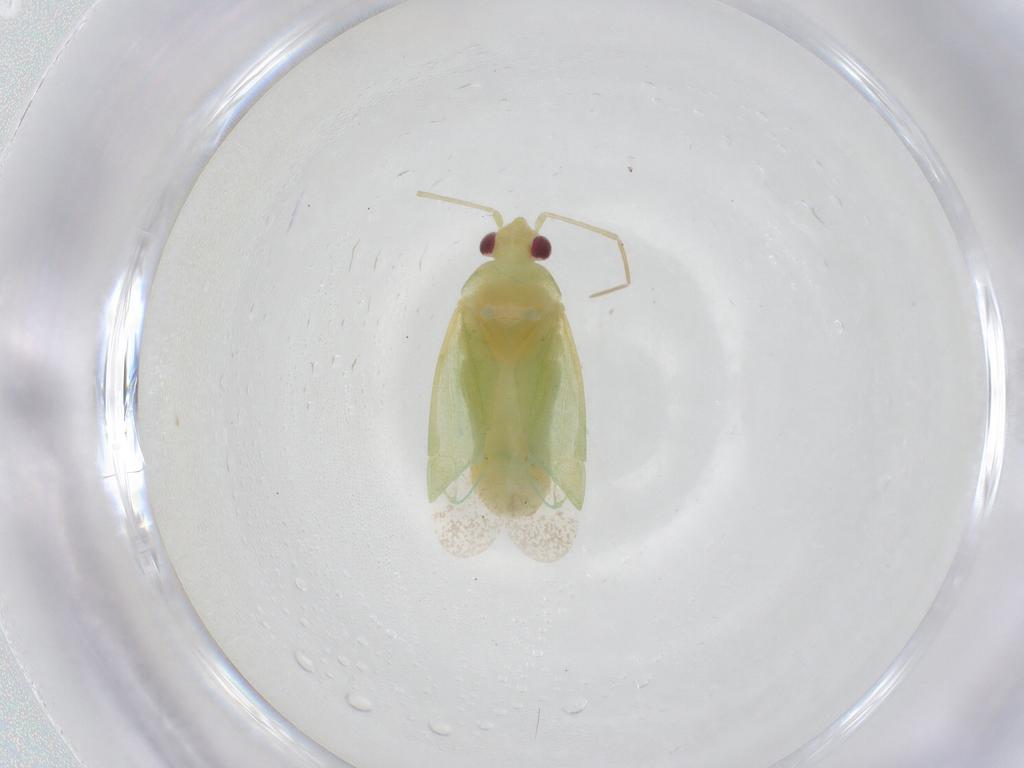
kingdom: Animalia
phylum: Arthropoda
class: Insecta
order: Hemiptera
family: Miridae
